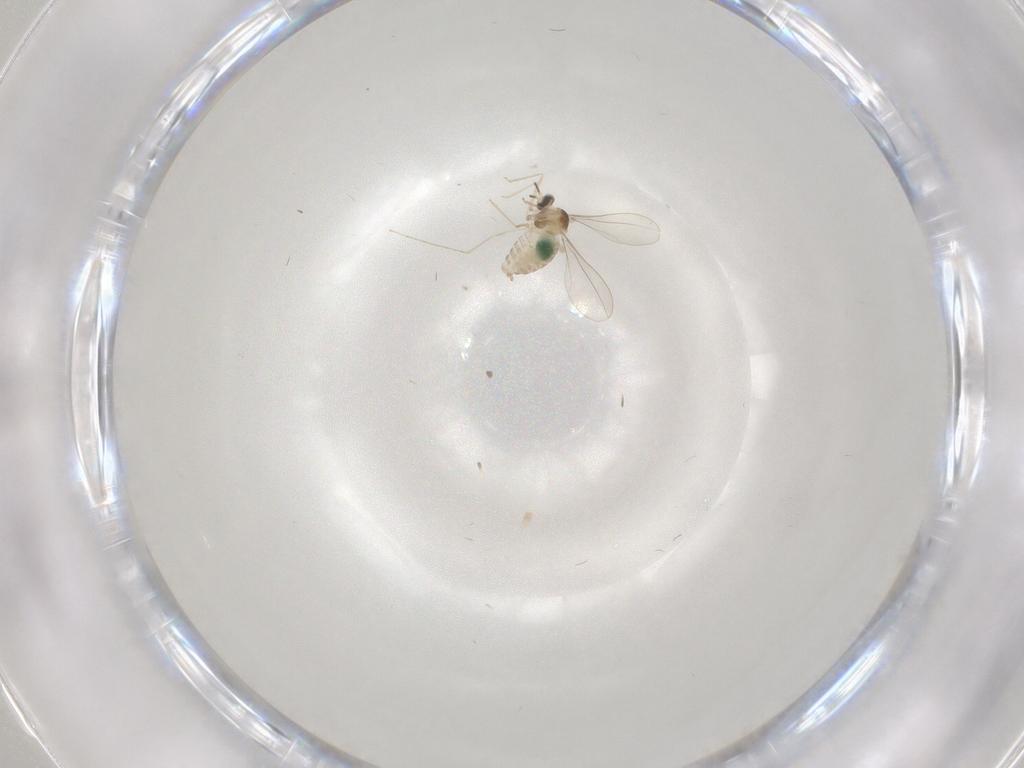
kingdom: Animalia
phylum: Arthropoda
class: Insecta
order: Diptera
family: Cecidomyiidae
